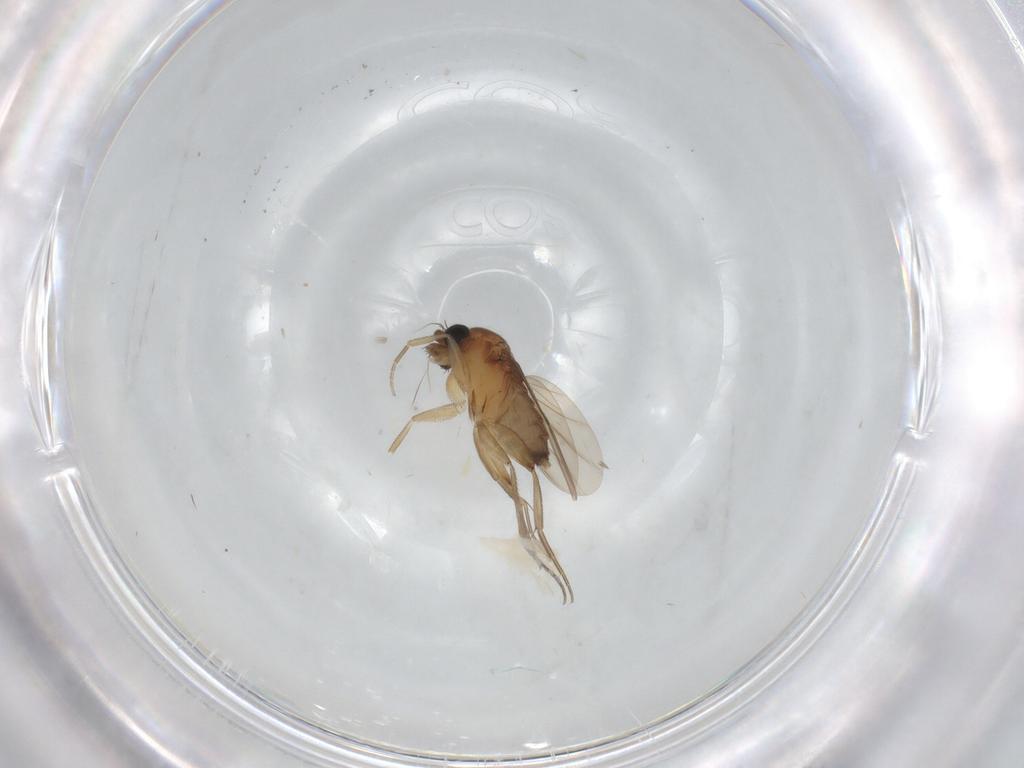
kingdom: Animalia
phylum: Arthropoda
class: Insecta
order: Diptera
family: Phoridae
